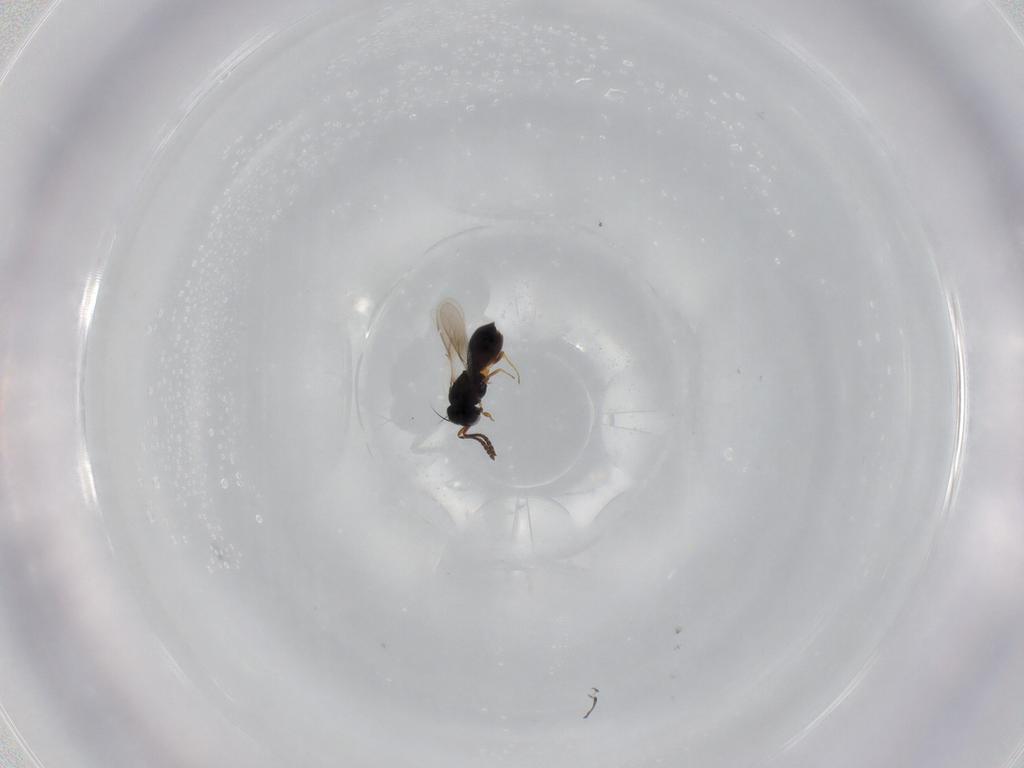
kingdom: Animalia
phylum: Arthropoda
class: Insecta
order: Hymenoptera
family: Scelionidae
